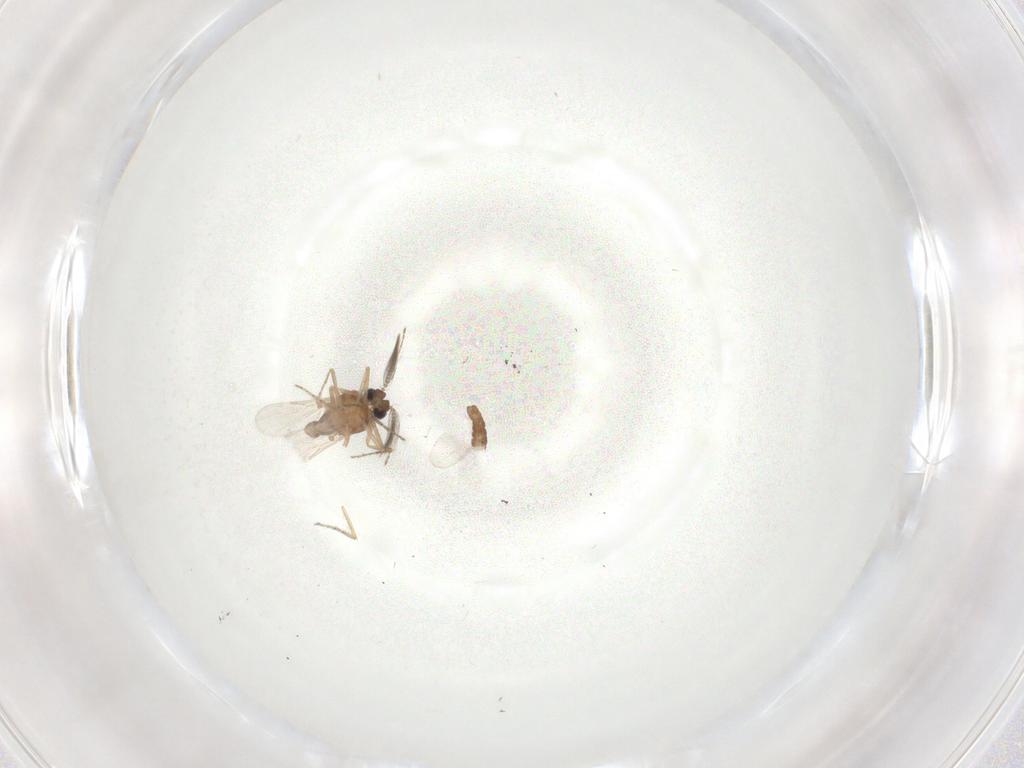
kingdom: Animalia
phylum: Arthropoda
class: Insecta
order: Diptera
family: Ceratopogonidae
